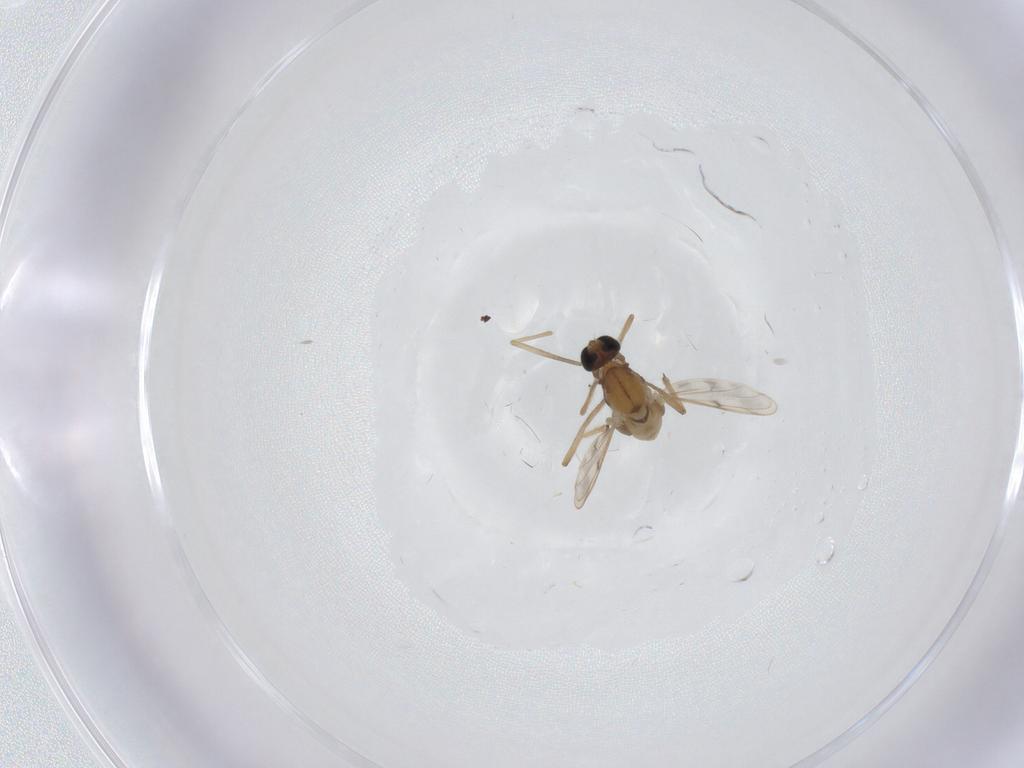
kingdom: Animalia
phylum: Arthropoda
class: Insecta
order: Diptera
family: Chironomidae
